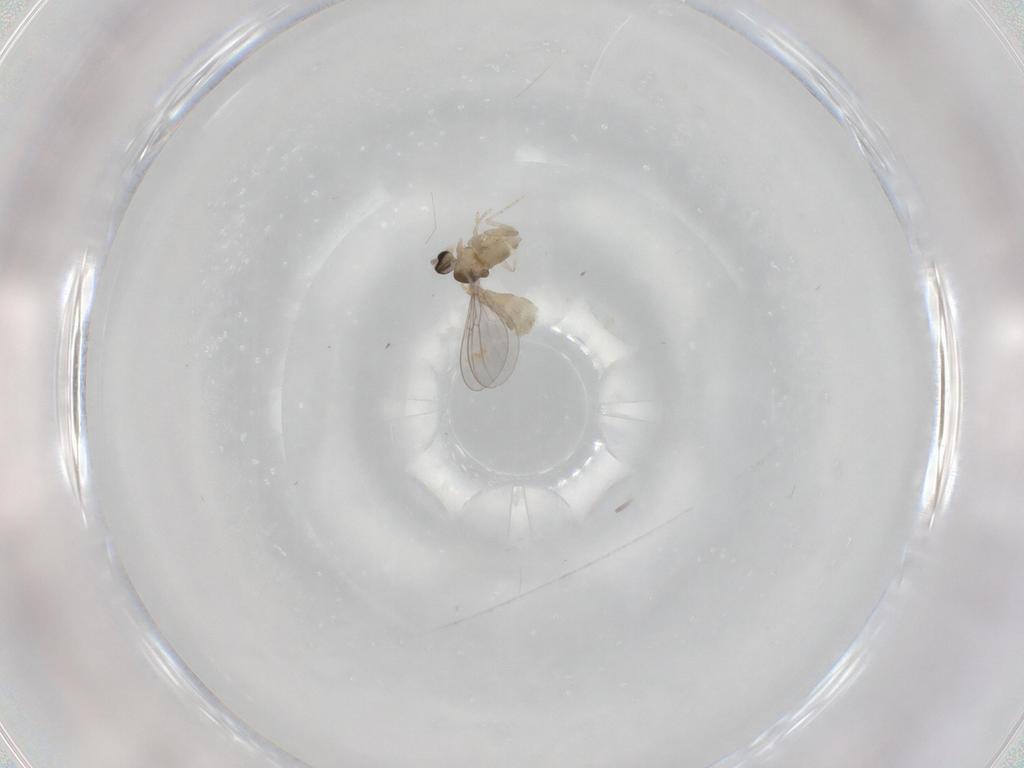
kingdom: Animalia
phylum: Arthropoda
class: Insecta
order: Diptera
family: Cecidomyiidae
